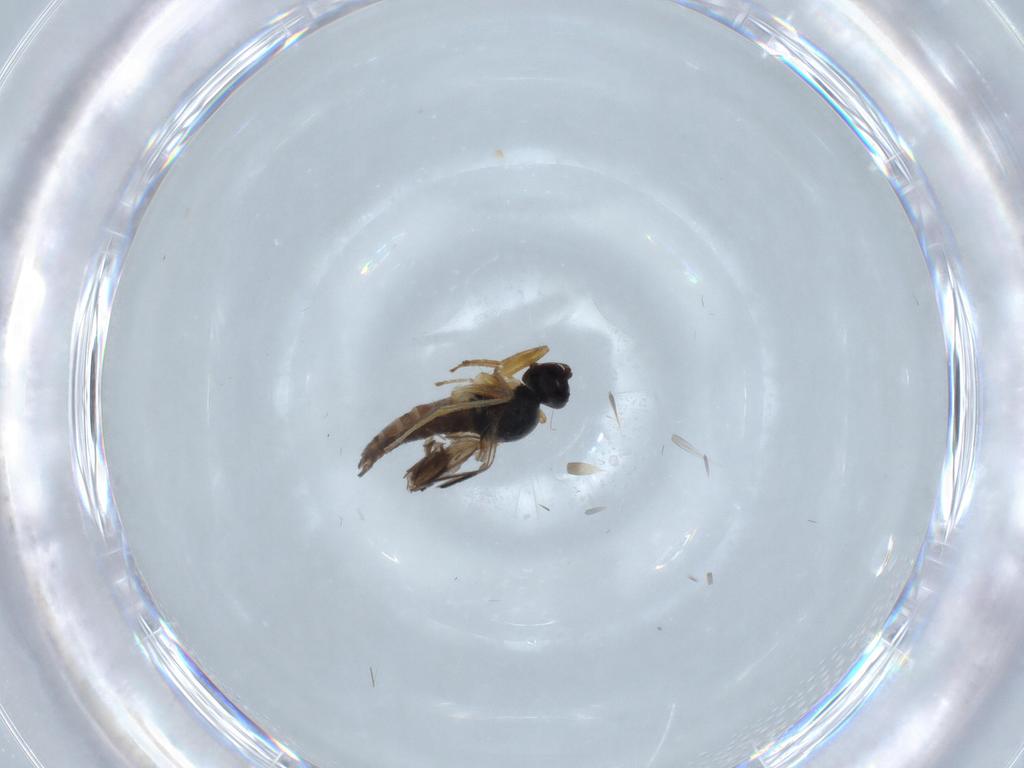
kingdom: Animalia
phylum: Arthropoda
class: Insecta
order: Diptera
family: Hybotidae
